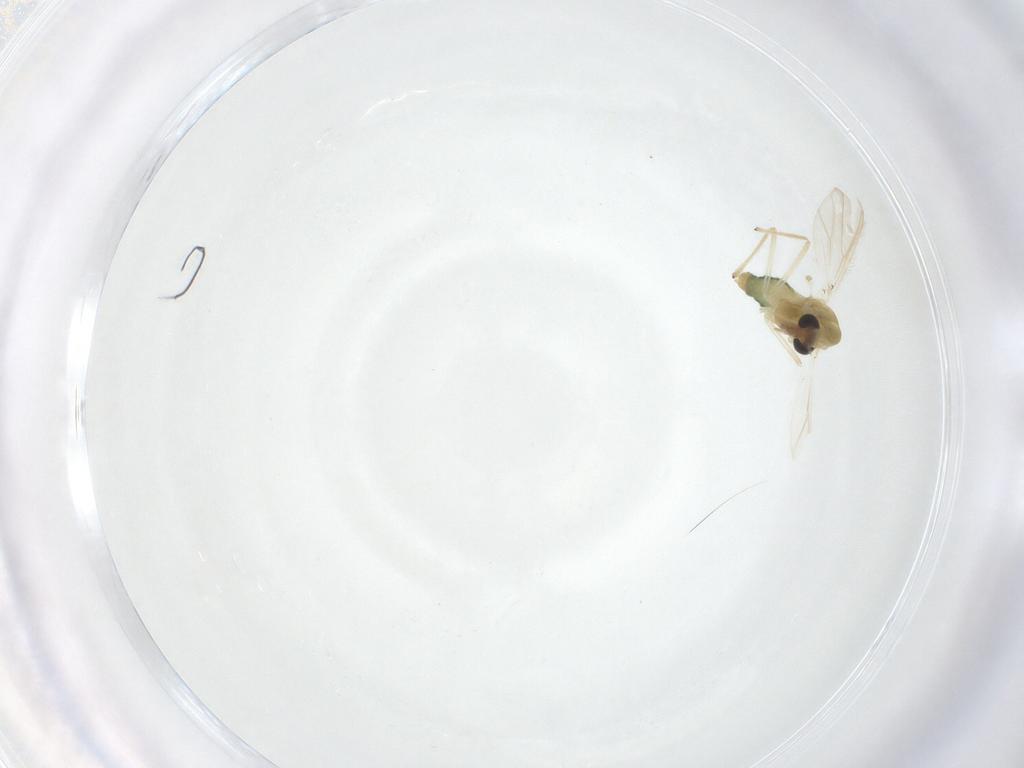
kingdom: Animalia
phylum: Arthropoda
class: Insecta
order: Diptera
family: Chironomidae
